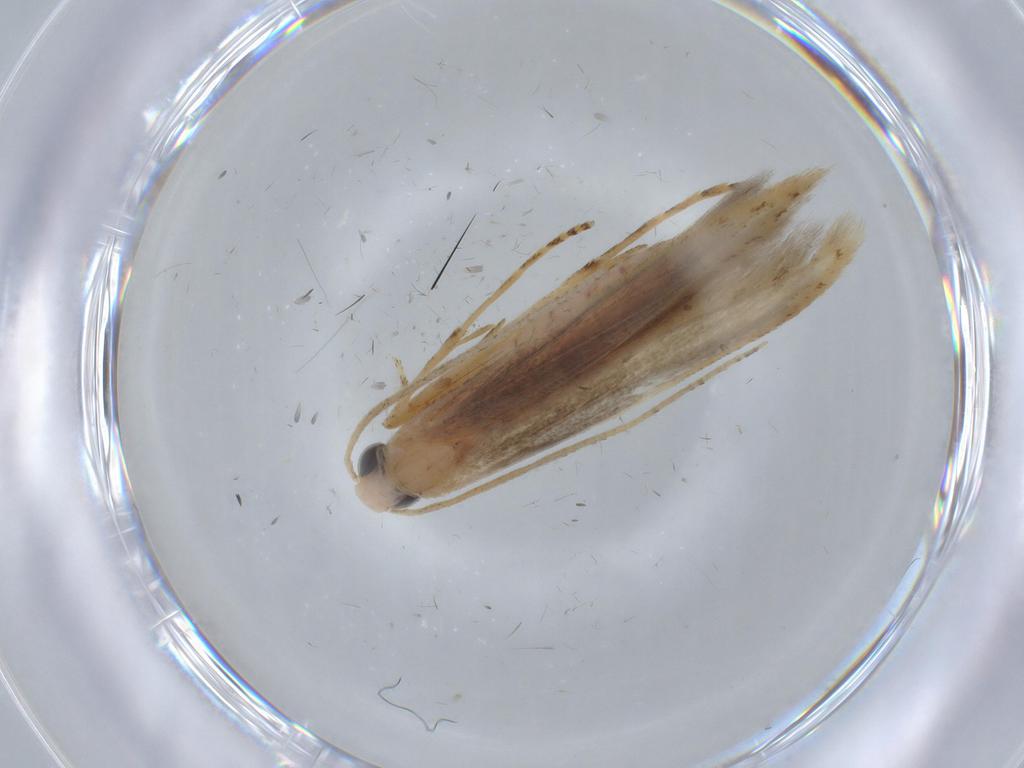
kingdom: Animalia
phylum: Arthropoda
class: Insecta
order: Lepidoptera
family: Batrachedridae
